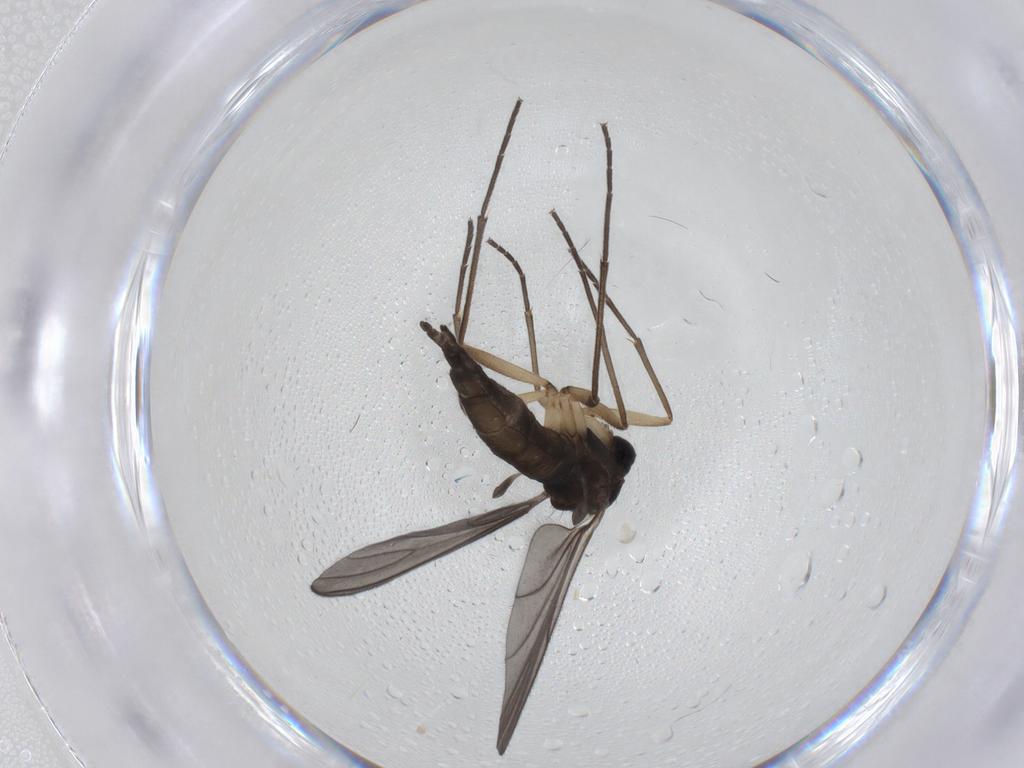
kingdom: Animalia
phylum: Arthropoda
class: Insecta
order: Diptera
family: Sciaridae
